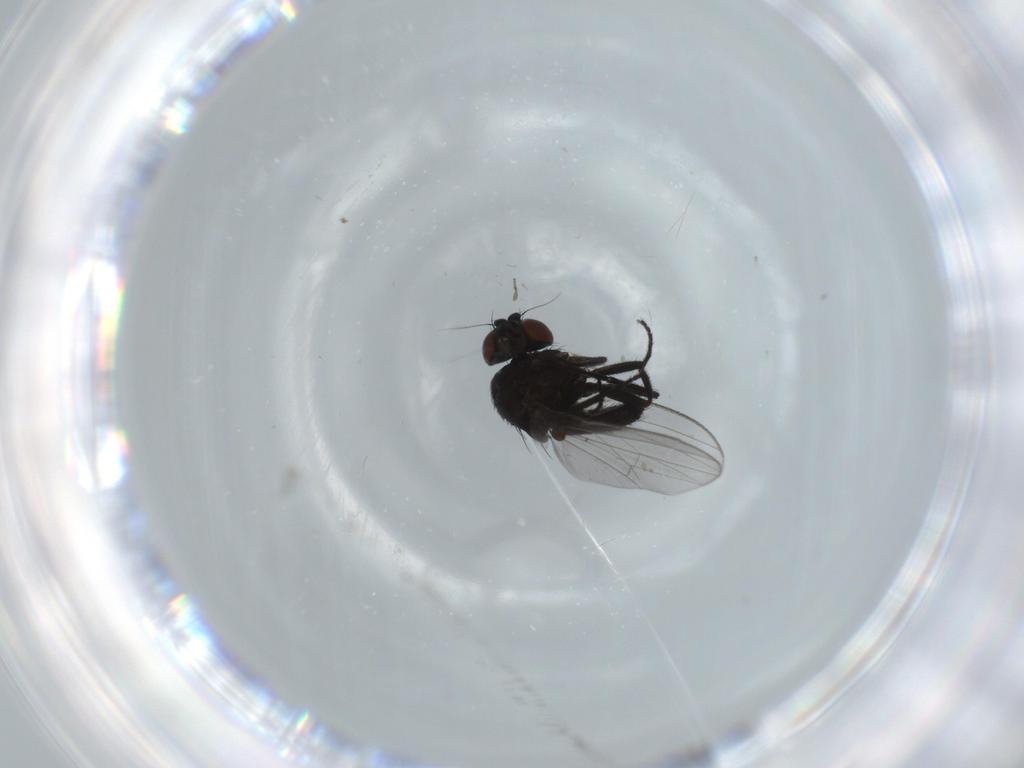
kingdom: Animalia
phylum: Arthropoda
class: Insecta
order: Diptera
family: Milichiidae
